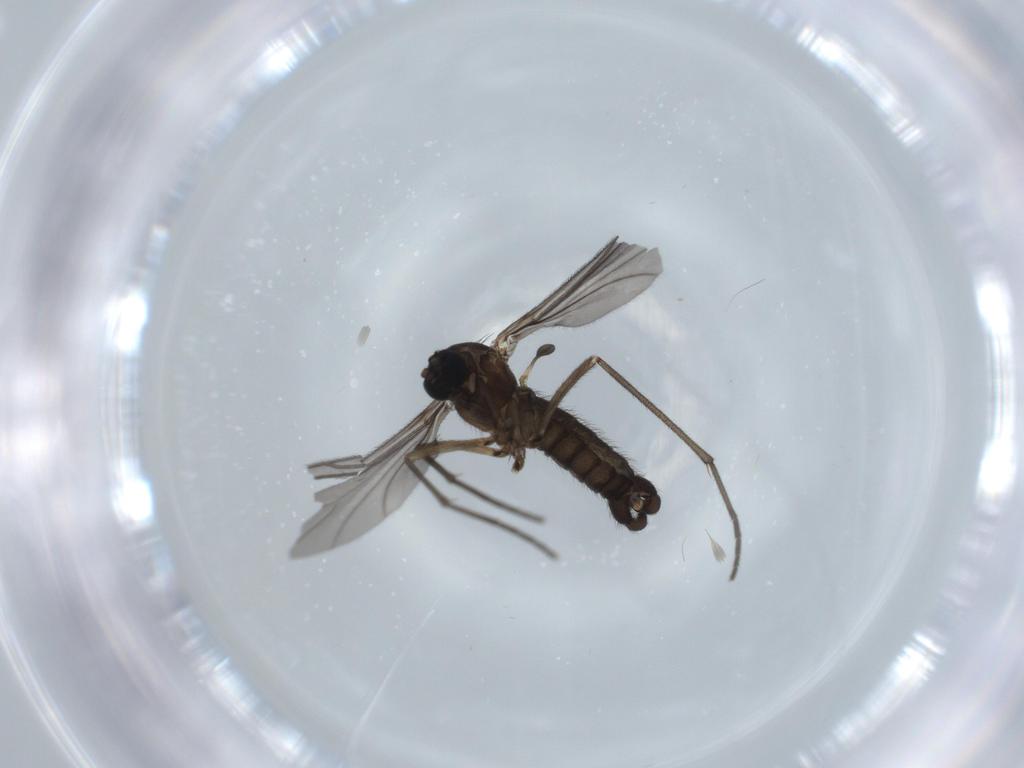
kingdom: Animalia
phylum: Arthropoda
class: Insecta
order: Diptera
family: Sciaridae
